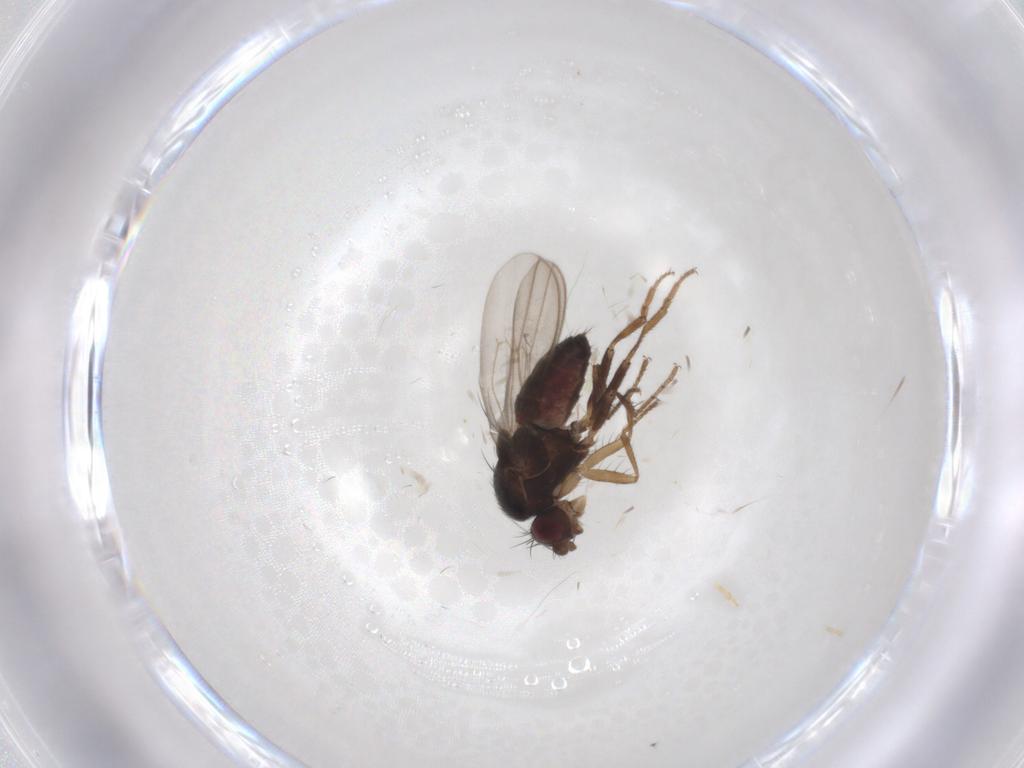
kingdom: Animalia
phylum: Arthropoda
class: Insecta
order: Diptera
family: Sphaeroceridae
